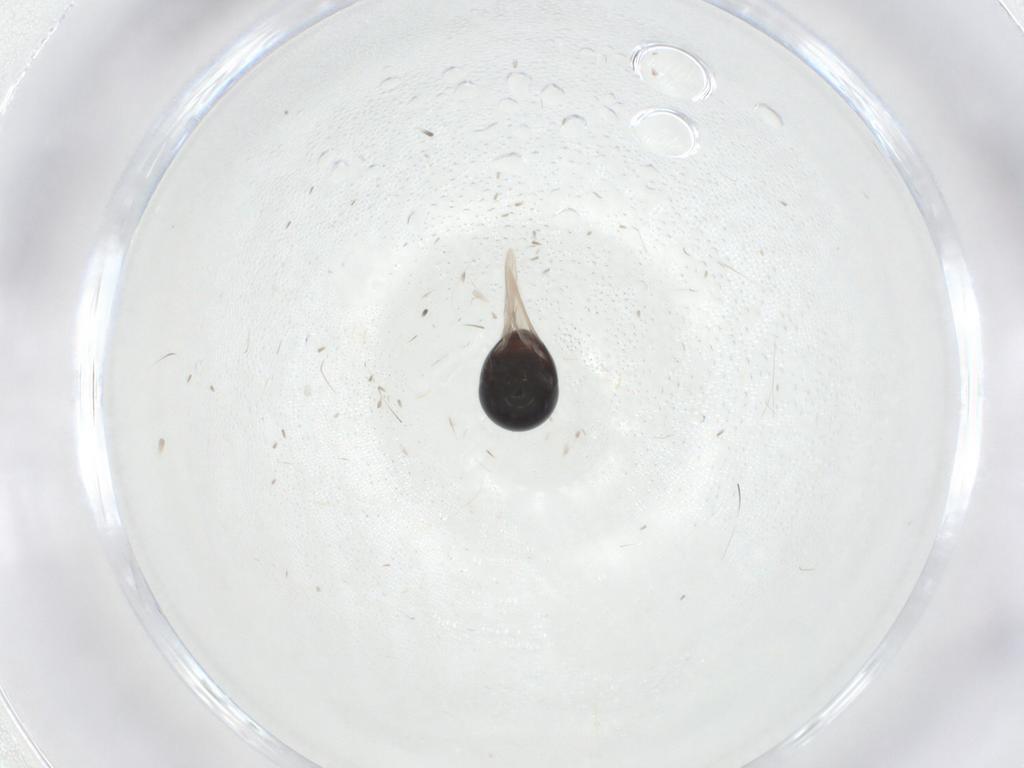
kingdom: Animalia
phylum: Arthropoda
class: Insecta
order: Coleoptera
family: Cybocephalidae
